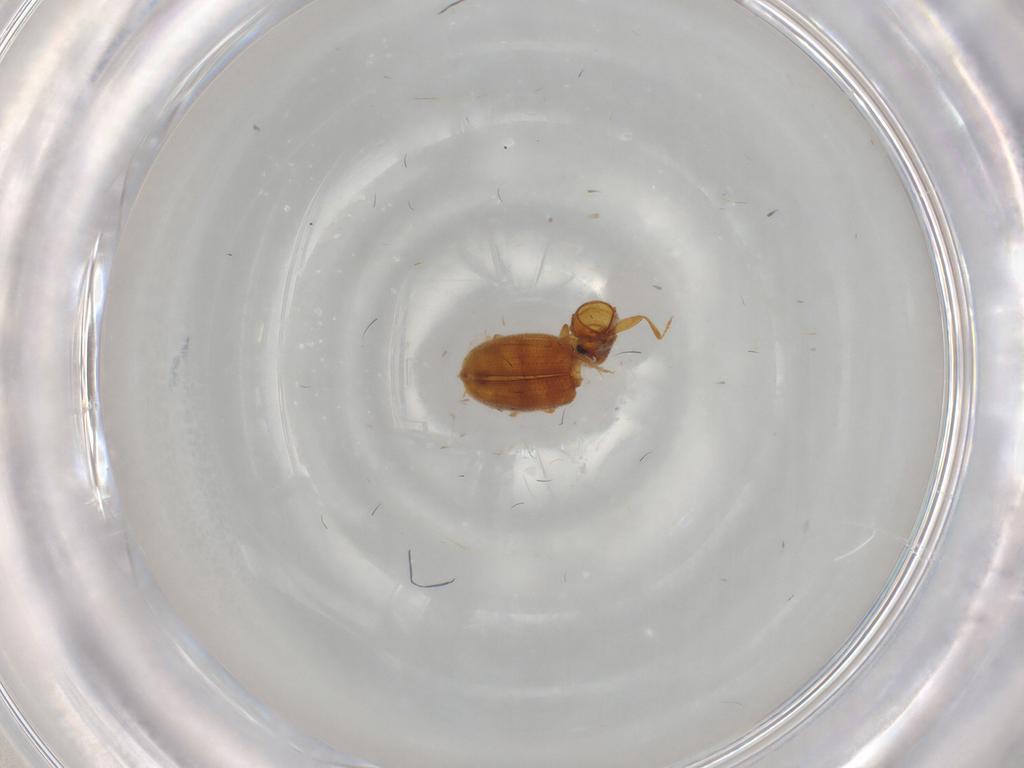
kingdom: Animalia
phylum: Arthropoda
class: Insecta
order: Coleoptera
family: Latridiidae
